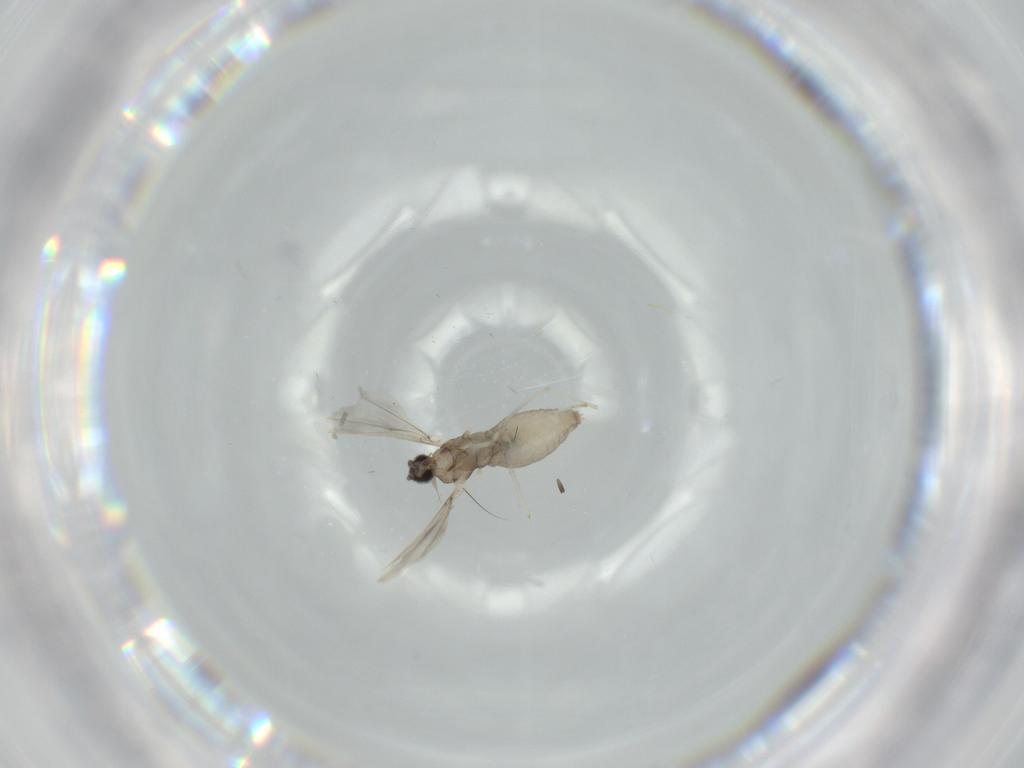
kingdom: Animalia
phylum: Arthropoda
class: Insecta
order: Diptera
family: Cecidomyiidae
